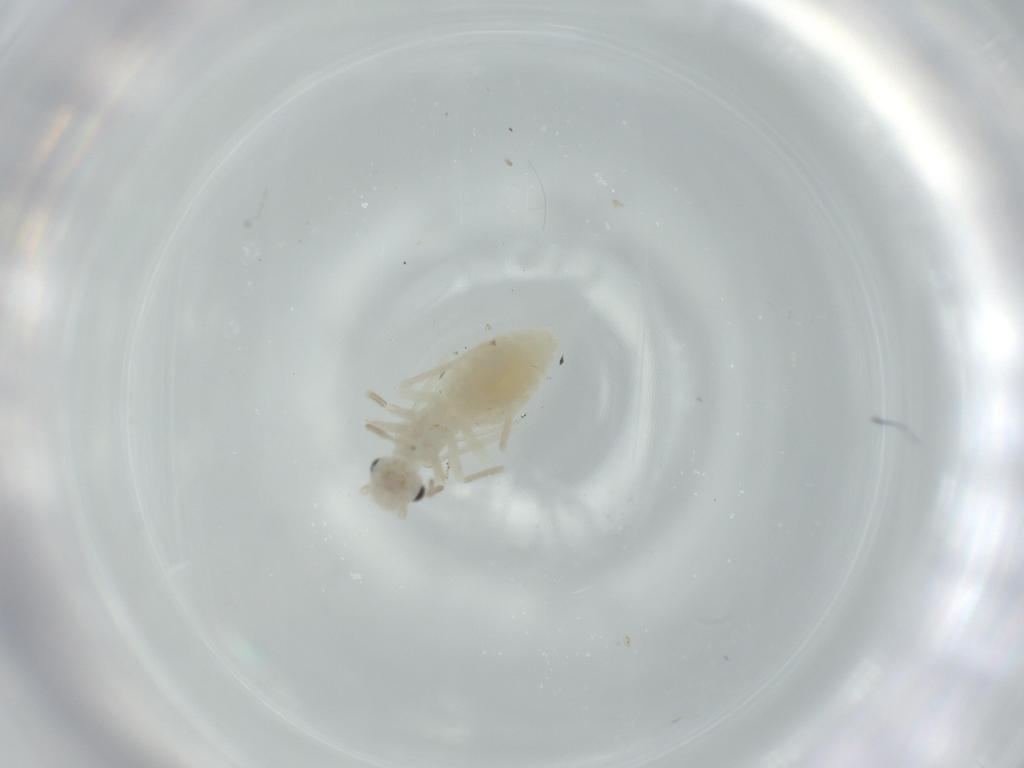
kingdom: Animalia
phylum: Arthropoda
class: Insecta
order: Psocodea
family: Caeciliusidae
